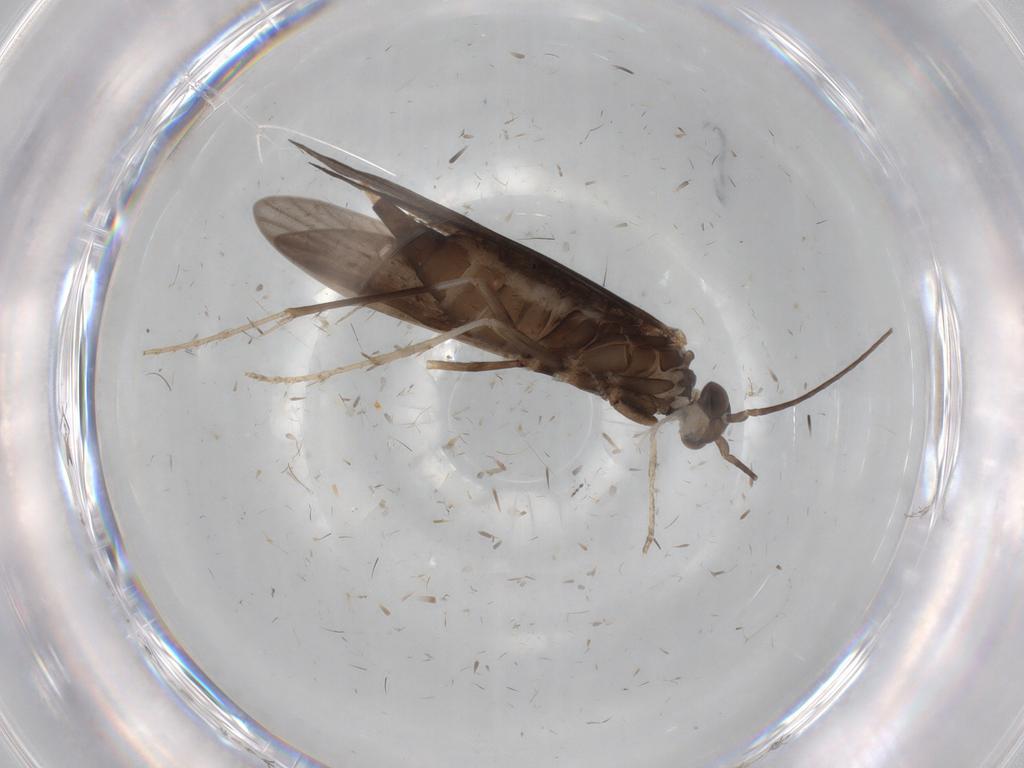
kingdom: Animalia
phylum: Arthropoda
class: Insecta
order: Trichoptera
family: Xiphocentronidae
